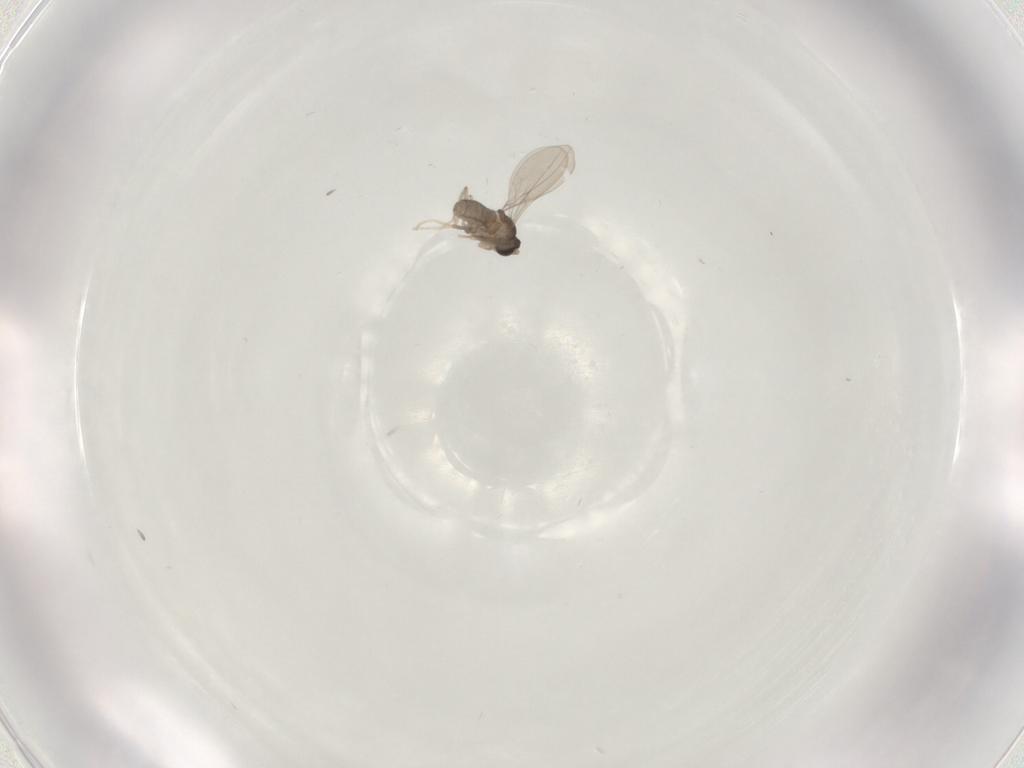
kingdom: Animalia
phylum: Arthropoda
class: Insecta
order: Diptera
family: Cecidomyiidae
